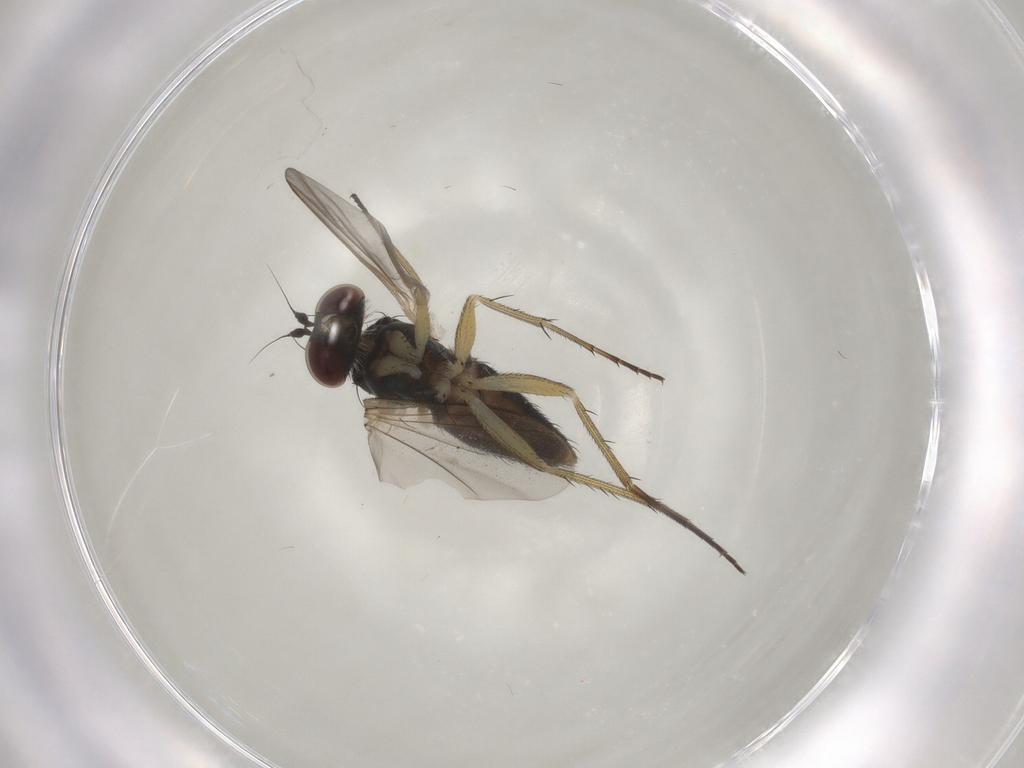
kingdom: Animalia
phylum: Arthropoda
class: Insecta
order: Diptera
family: Dolichopodidae
